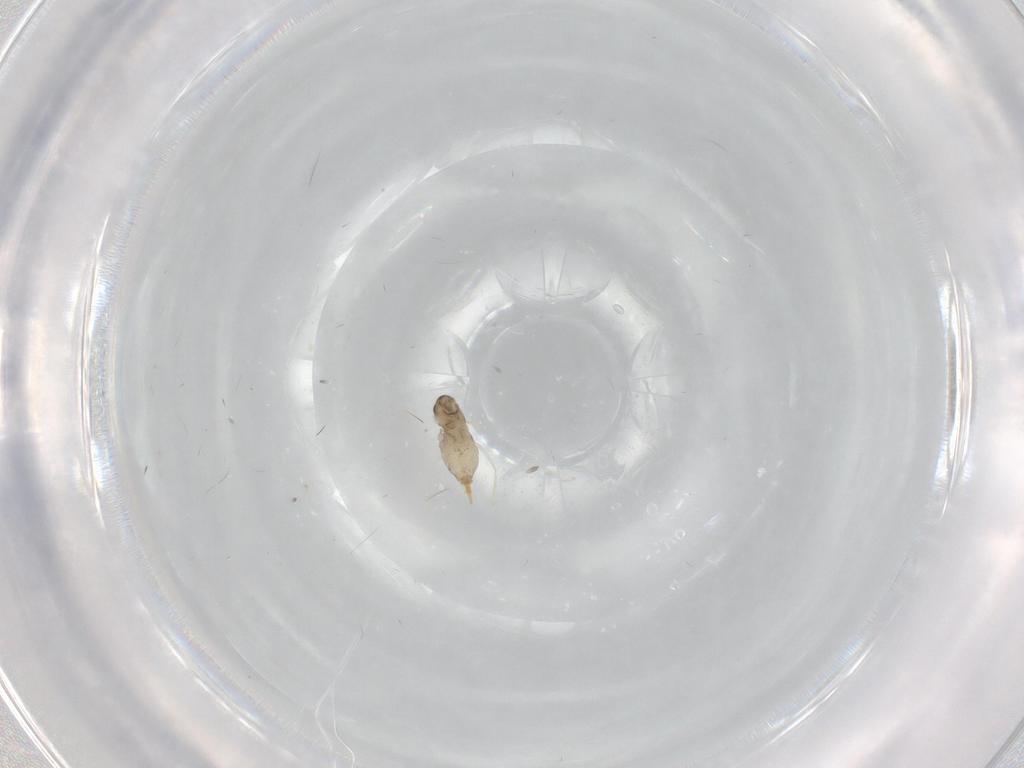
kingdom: Animalia
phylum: Arthropoda
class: Insecta
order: Diptera
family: Cecidomyiidae
